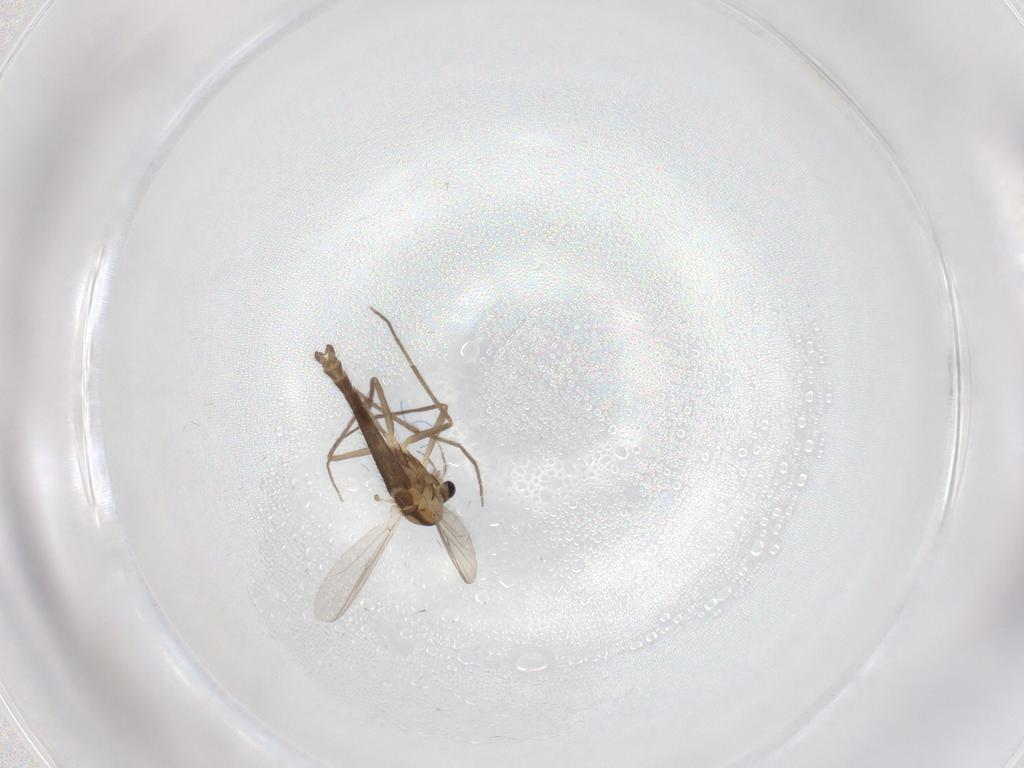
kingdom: Animalia
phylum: Arthropoda
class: Insecta
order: Diptera
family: Chironomidae
